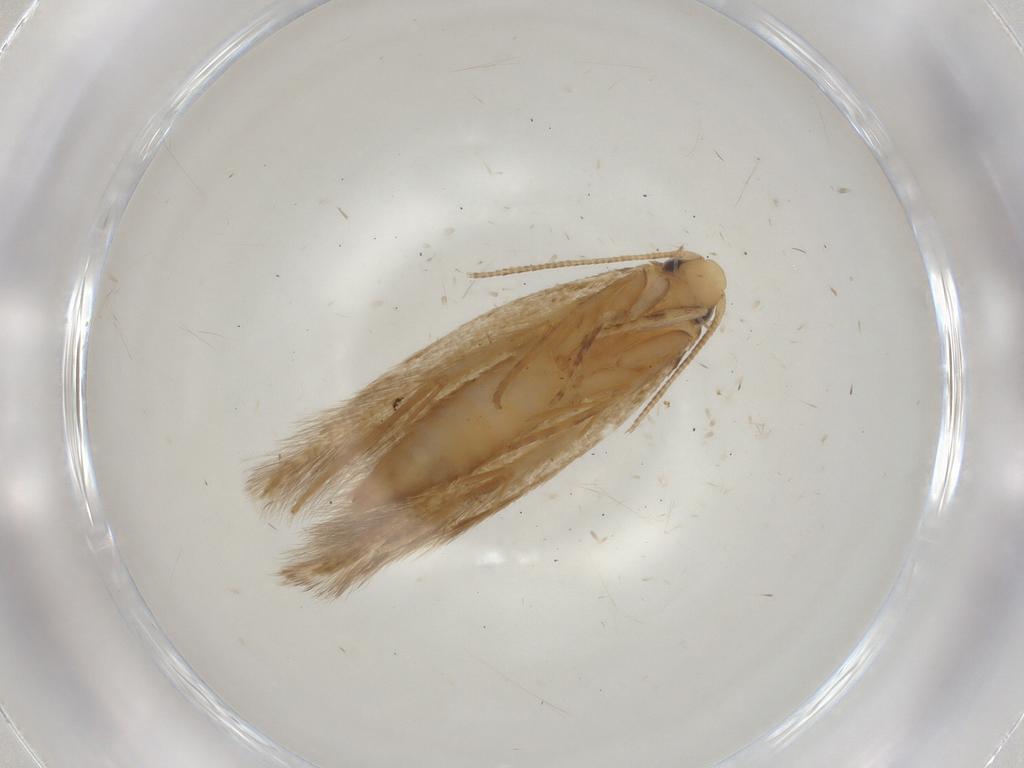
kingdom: Animalia
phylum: Arthropoda
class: Insecta
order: Lepidoptera
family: Tineidae
